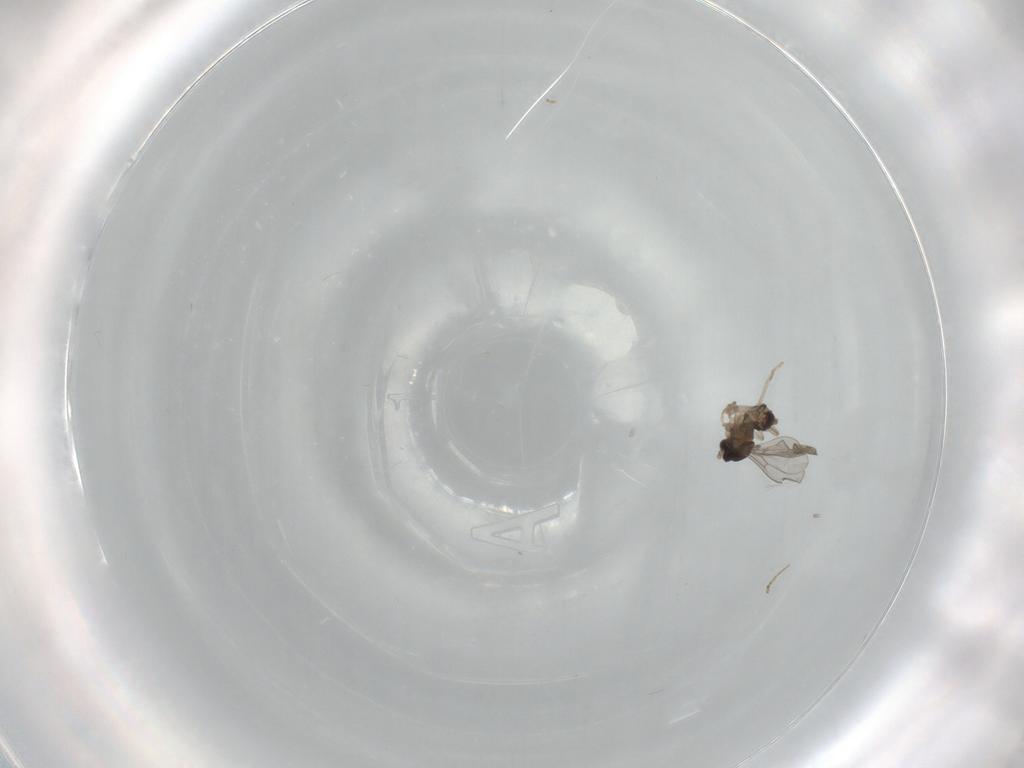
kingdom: Animalia
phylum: Arthropoda
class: Insecta
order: Diptera
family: Cecidomyiidae
